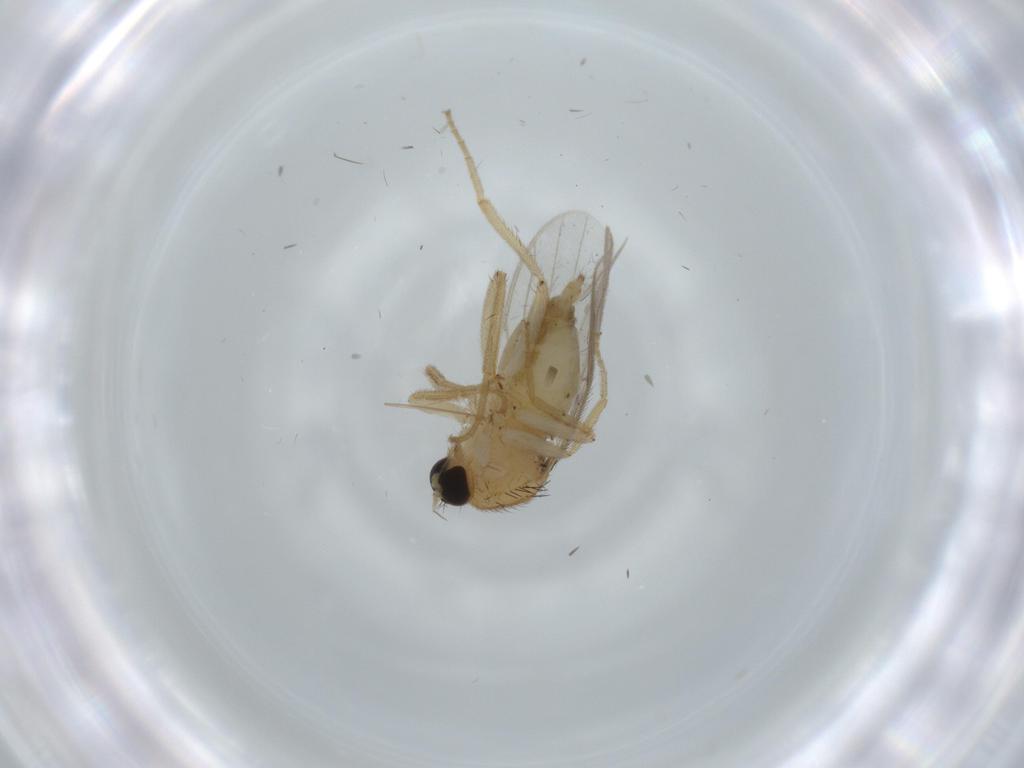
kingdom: Animalia
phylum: Arthropoda
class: Insecta
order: Diptera
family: Hybotidae
